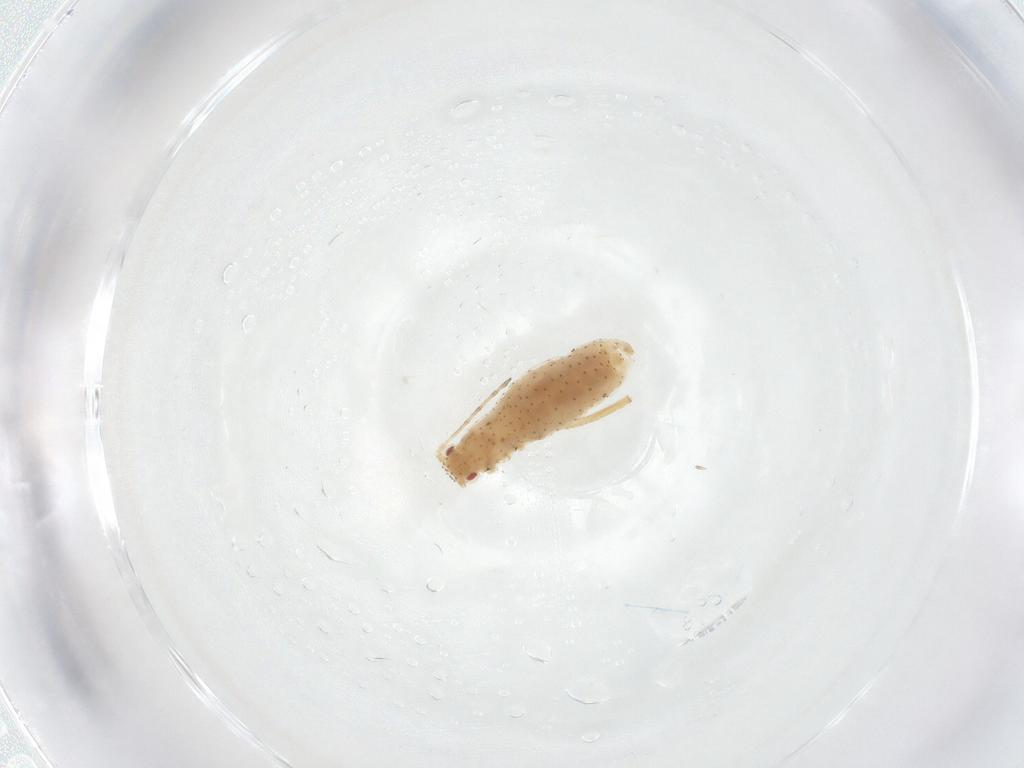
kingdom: Animalia
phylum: Arthropoda
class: Insecta
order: Hemiptera
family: Aphididae
